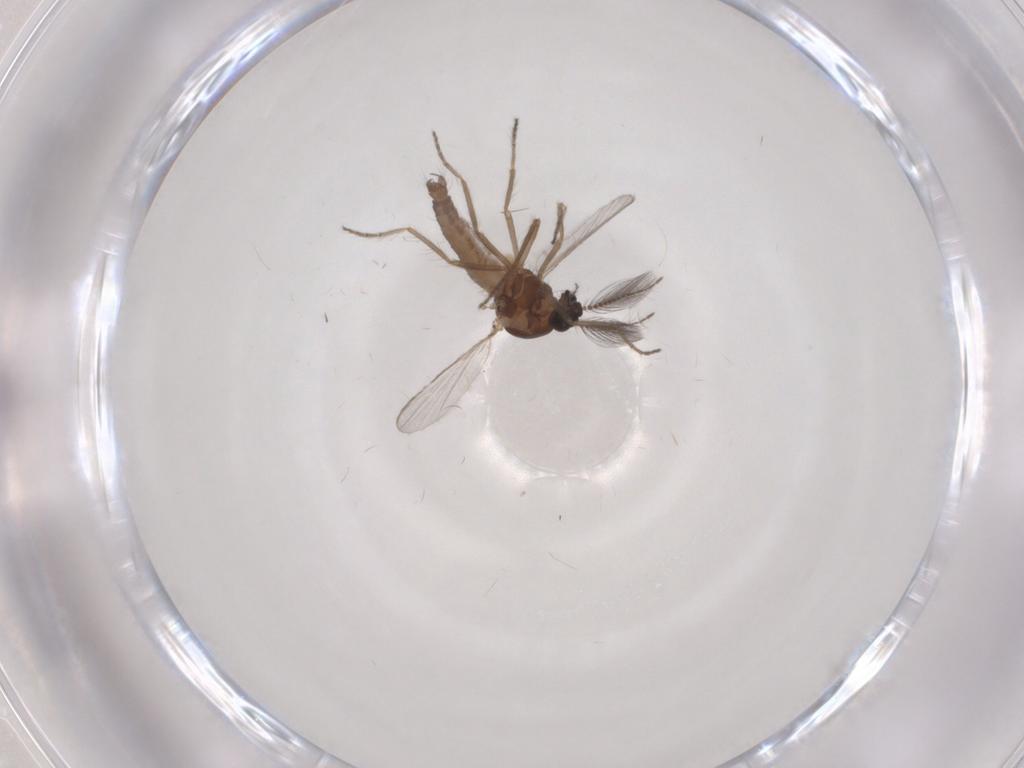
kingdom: Animalia
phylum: Arthropoda
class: Insecta
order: Diptera
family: Ceratopogonidae
